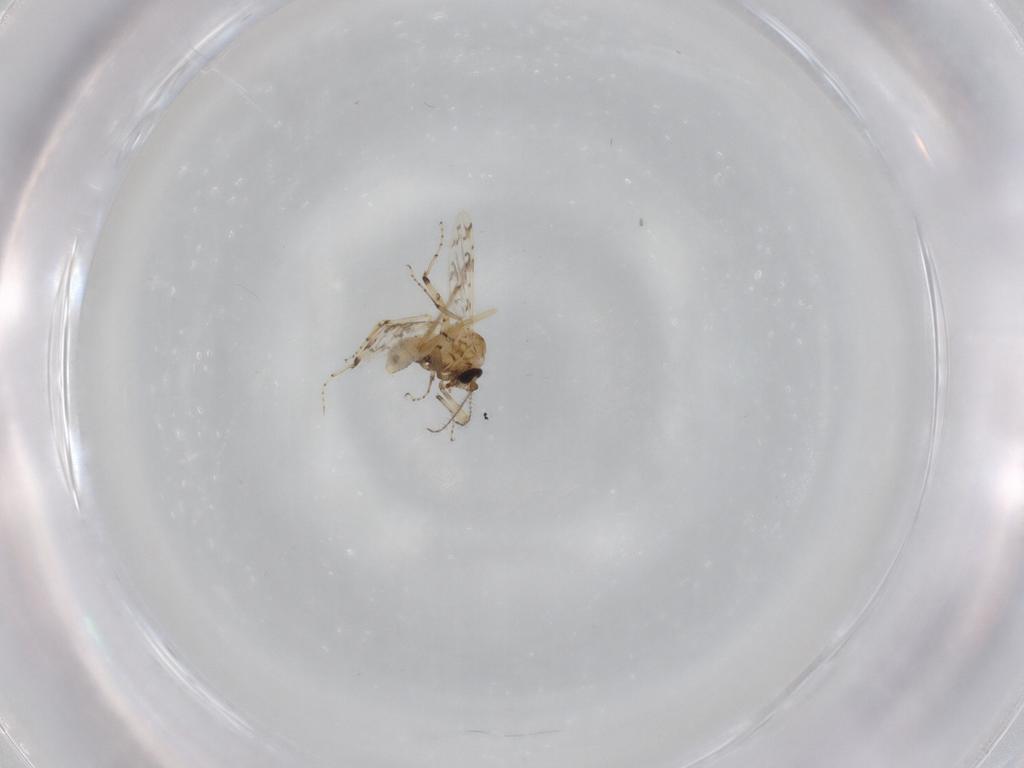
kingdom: Animalia
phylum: Arthropoda
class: Insecta
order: Diptera
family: Ceratopogonidae
